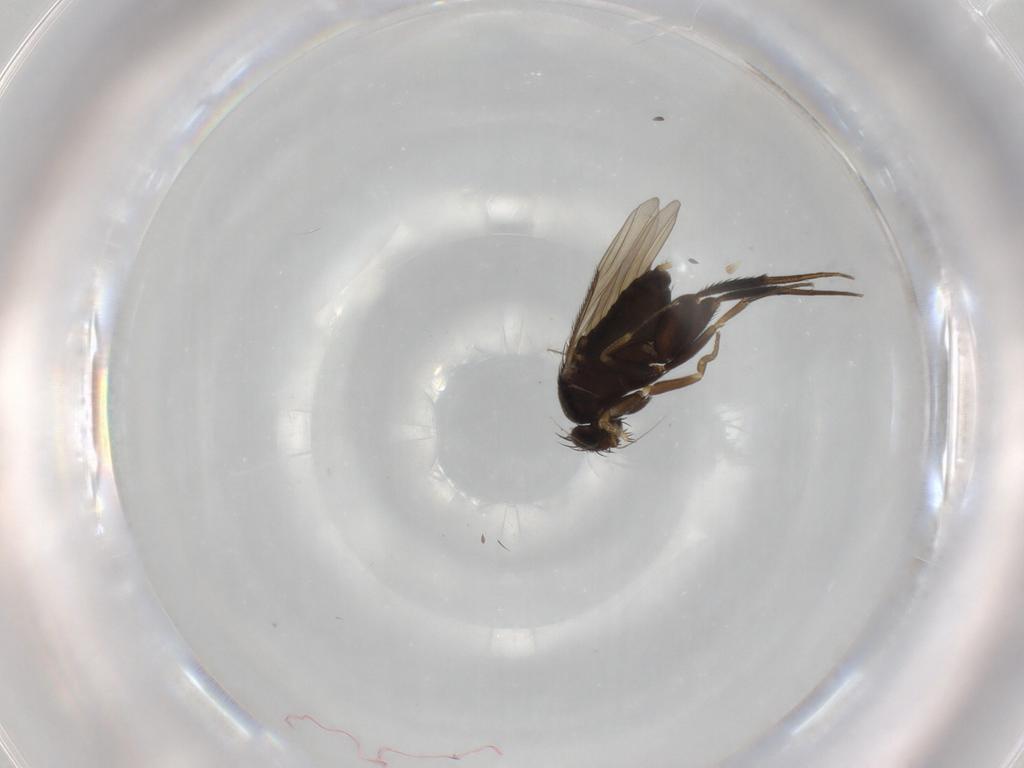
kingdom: Animalia
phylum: Arthropoda
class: Insecta
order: Diptera
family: Phoridae
